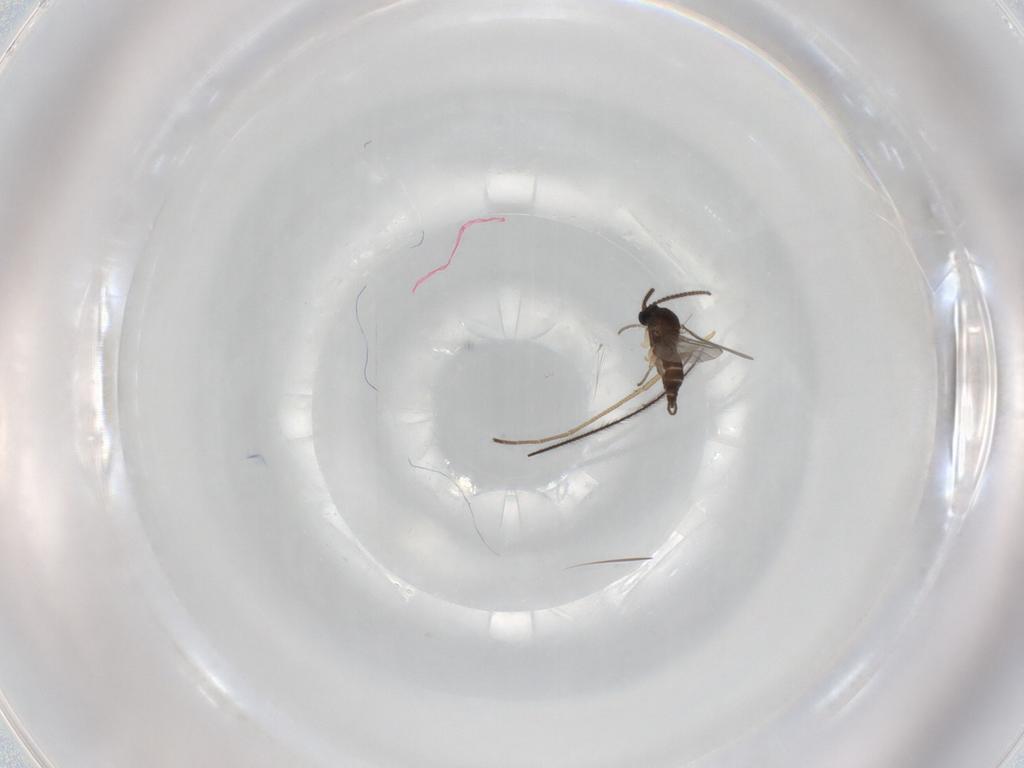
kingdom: Animalia
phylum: Arthropoda
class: Insecta
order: Diptera
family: Sciaridae
